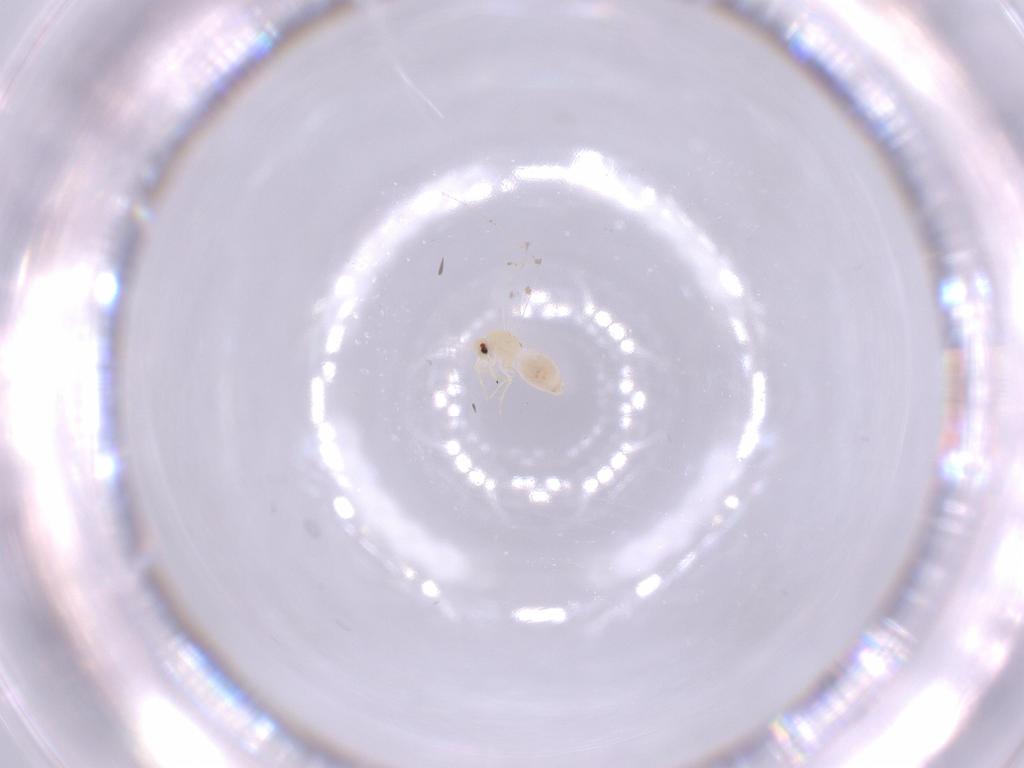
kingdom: Animalia
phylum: Arthropoda
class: Insecta
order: Hemiptera
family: Aleyrodidae
